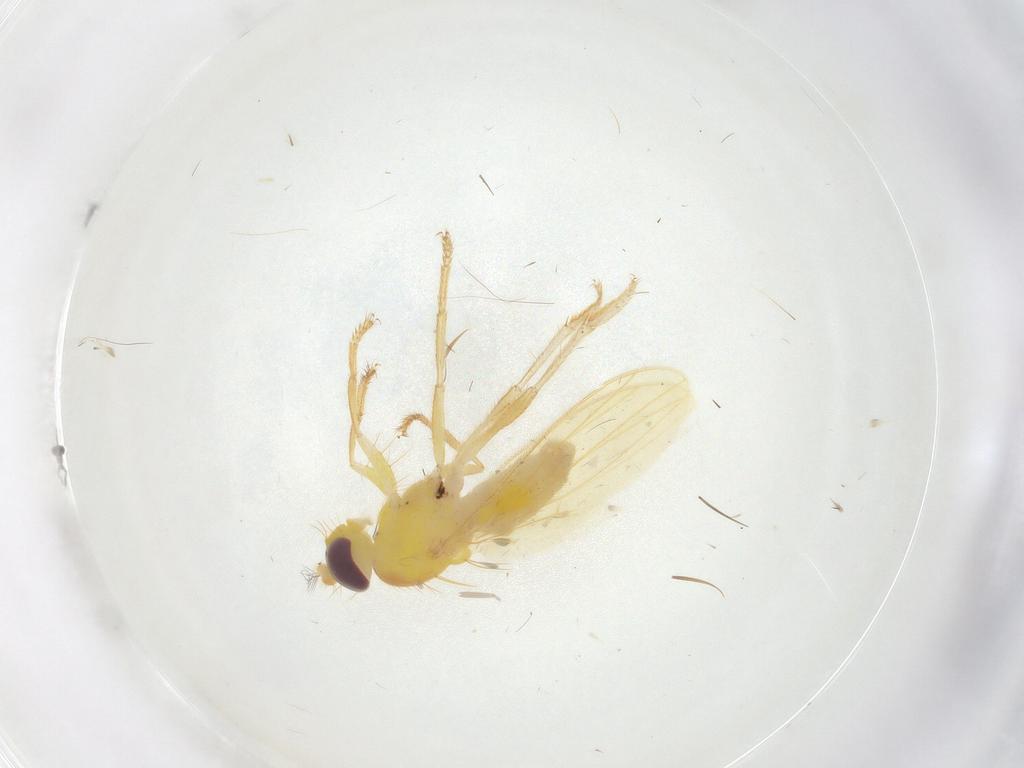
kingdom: Animalia
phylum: Arthropoda
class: Insecta
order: Diptera
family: Periscelididae
